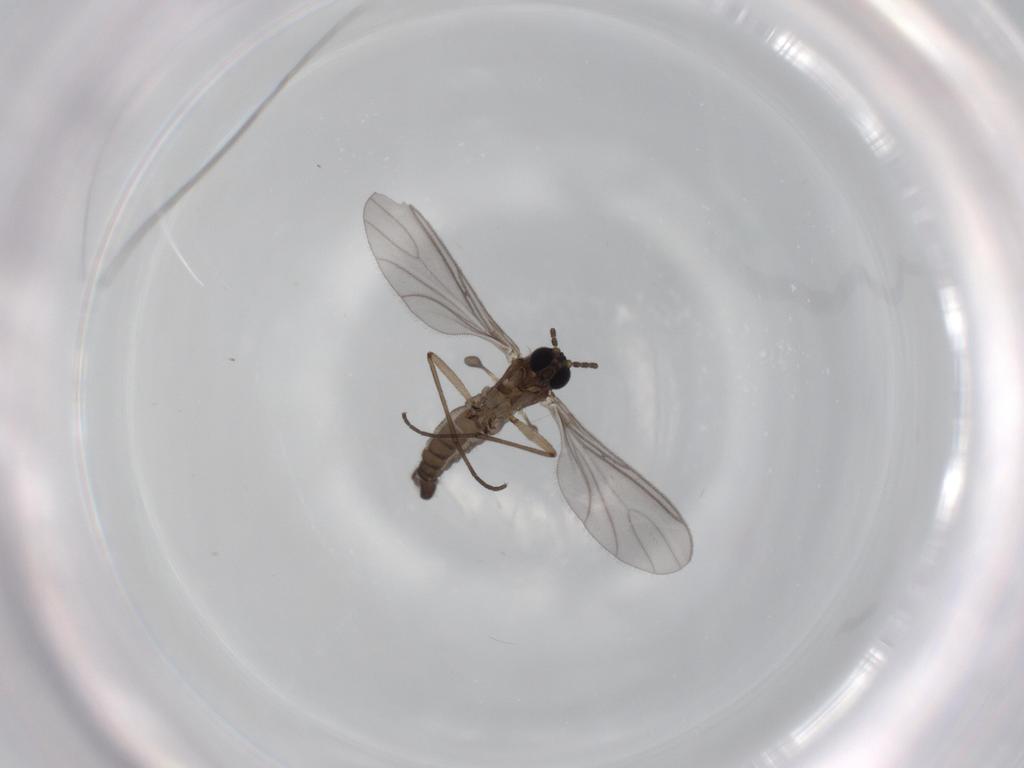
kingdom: Animalia
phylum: Arthropoda
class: Insecta
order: Diptera
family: Sciaridae
